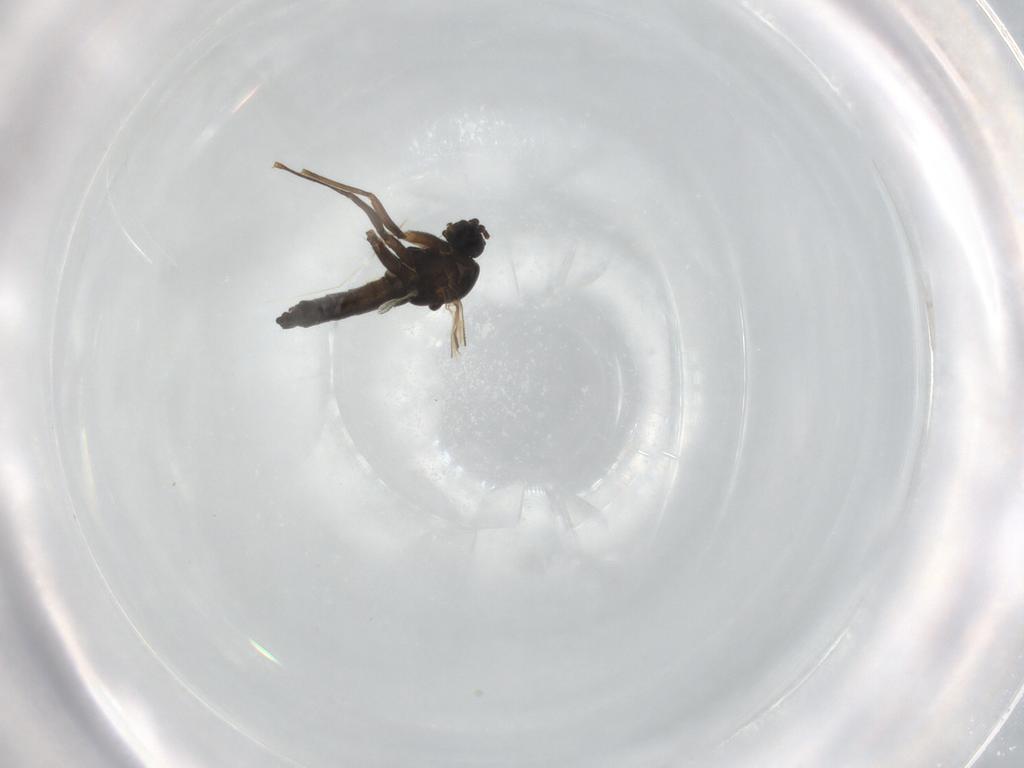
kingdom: Animalia
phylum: Arthropoda
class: Insecta
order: Diptera
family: Sciaridae
